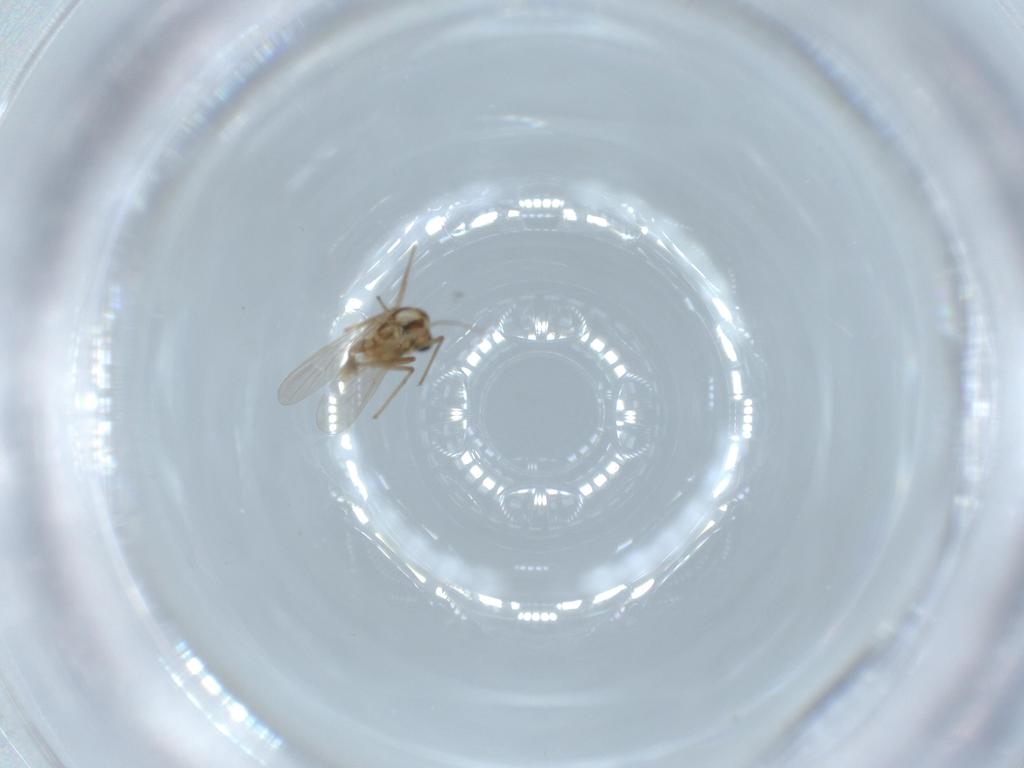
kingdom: Animalia
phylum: Arthropoda
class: Insecta
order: Diptera
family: Chironomidae
